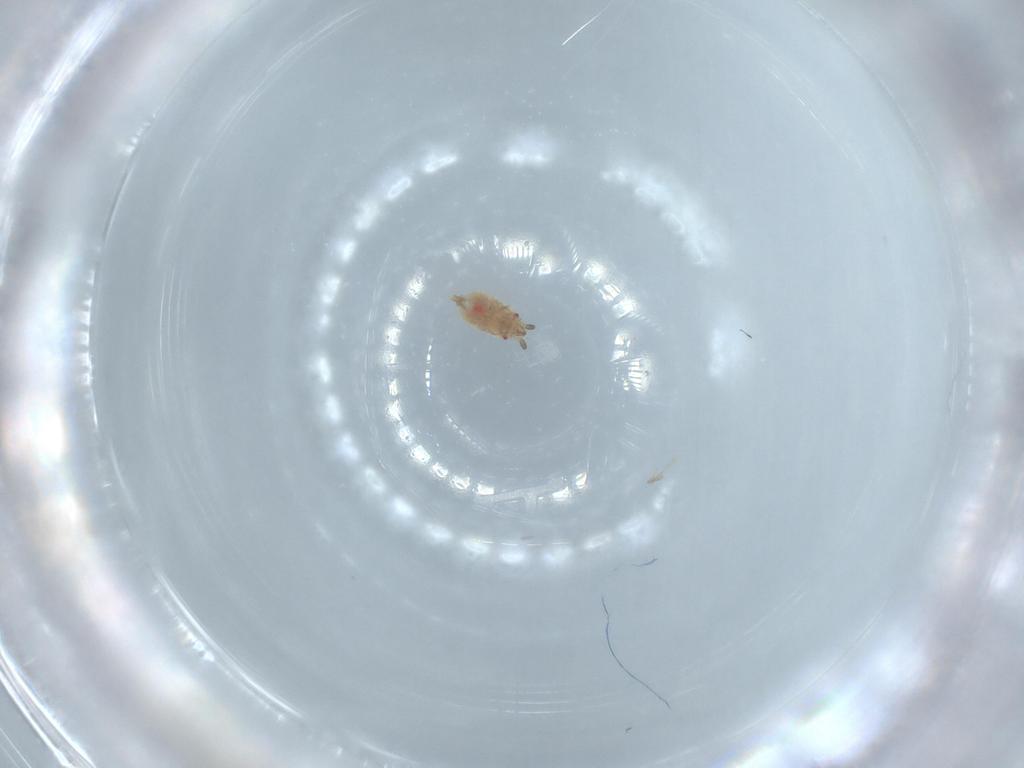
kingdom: Animalia
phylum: Arthropoda
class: Insecta
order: Hemiptera
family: Aradidae
